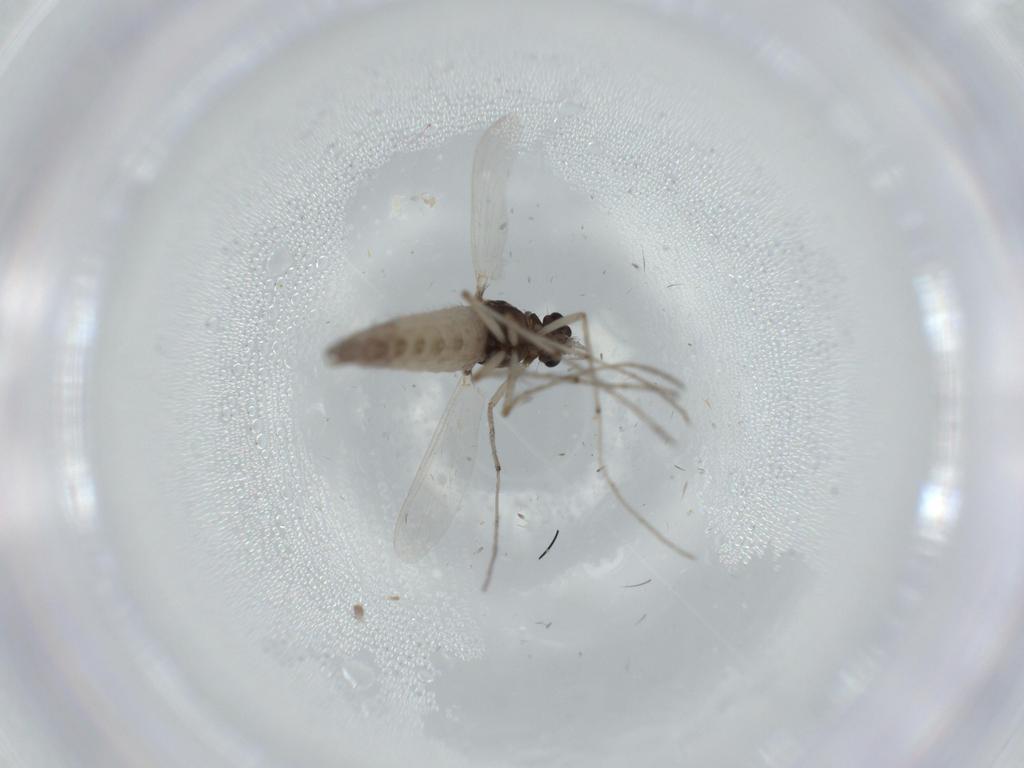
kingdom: Animalia
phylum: Arthropoda
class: Insecta
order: Diptera
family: Chironomidae
